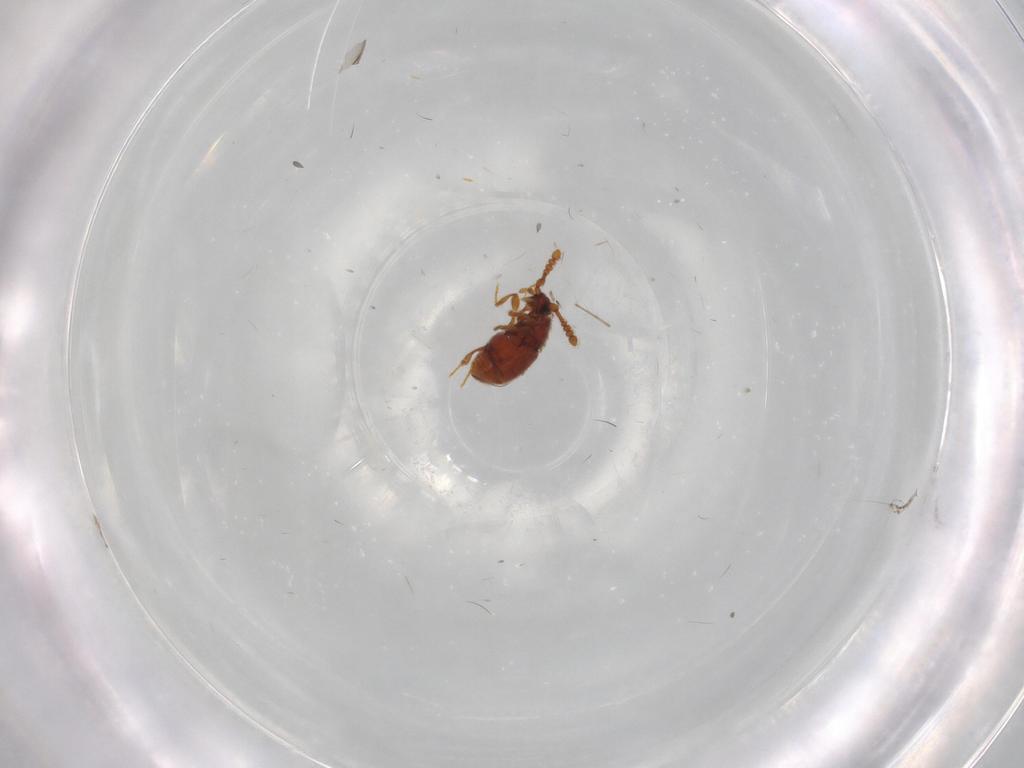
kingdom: Animalia
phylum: Arthropoda
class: Insecta
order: Coleoptera
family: Staphylinidae
